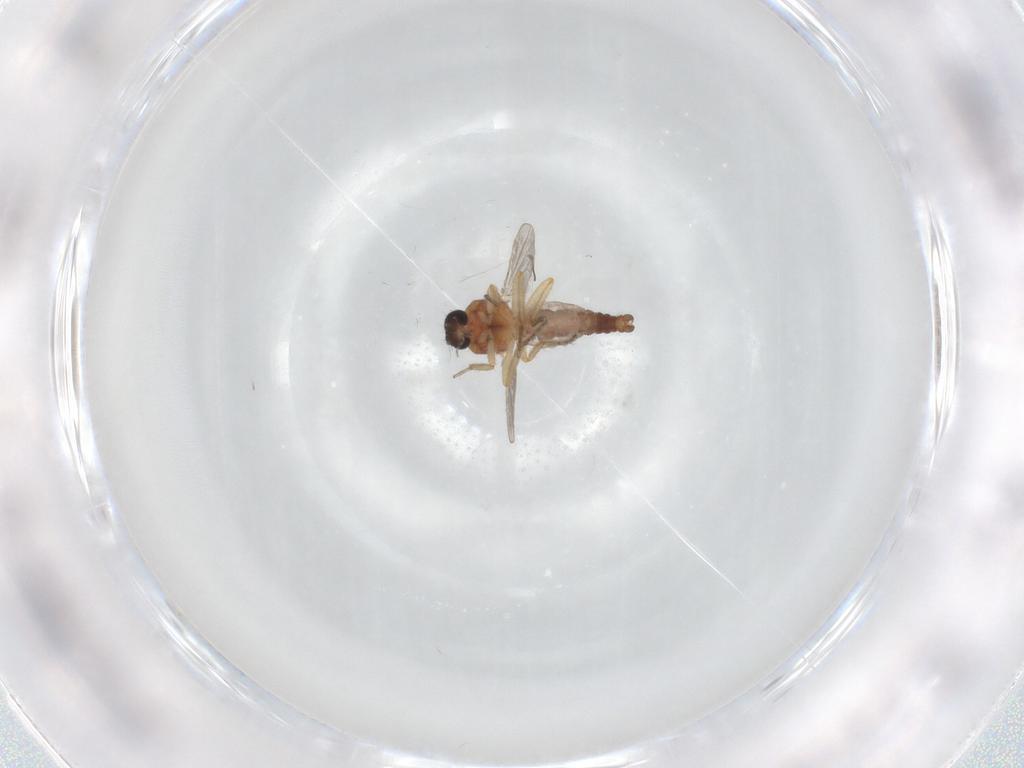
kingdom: Animalia
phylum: Arthropoda
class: Insecta
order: Diptera
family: Ceratopogonidae
